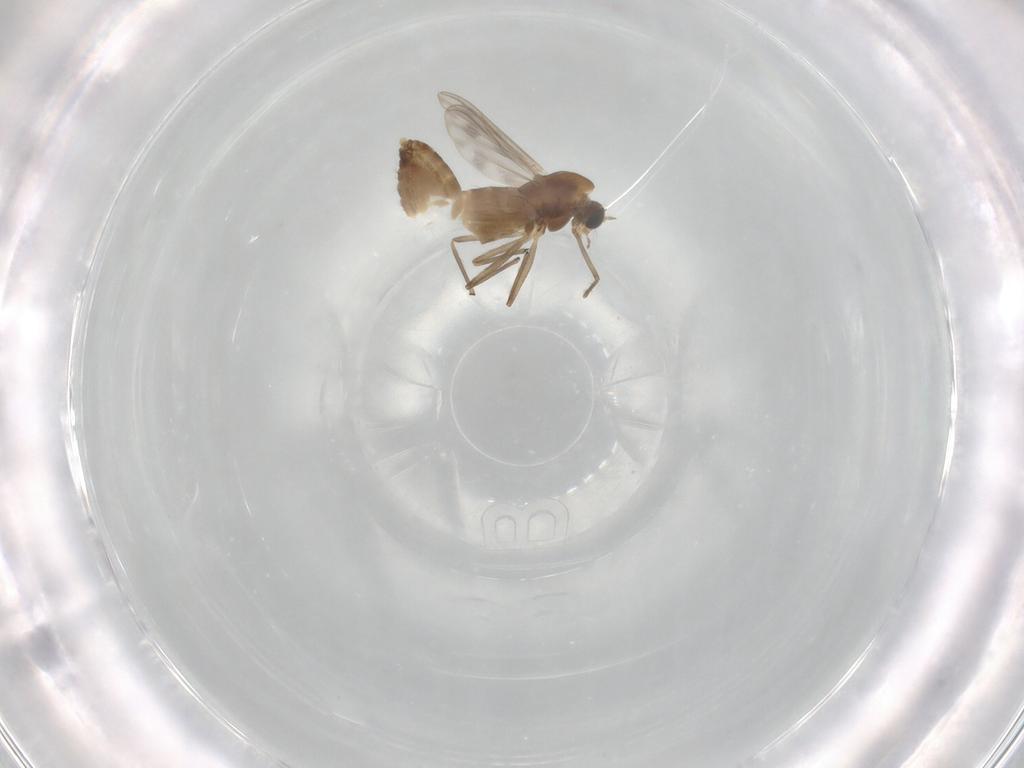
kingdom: Animalia
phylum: Arthropoda
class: Insecta
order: Diptera
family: Chironomidae
